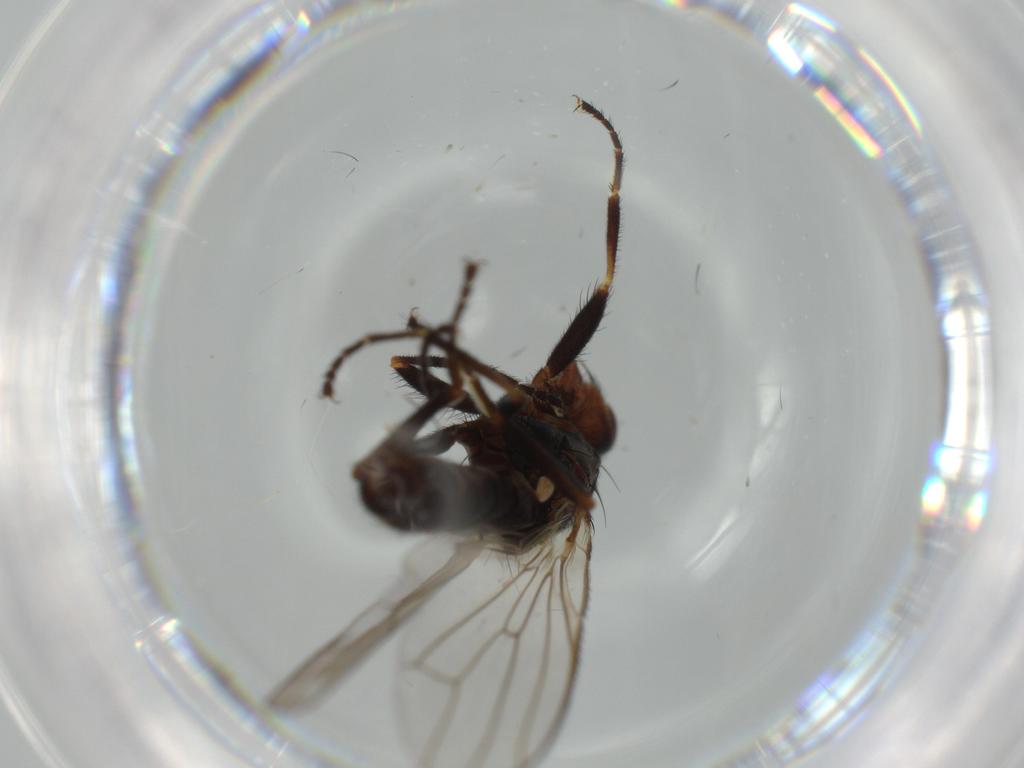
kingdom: Animalia
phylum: Arthropoda
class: Insecta
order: Diptera
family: Heleomyzidae
